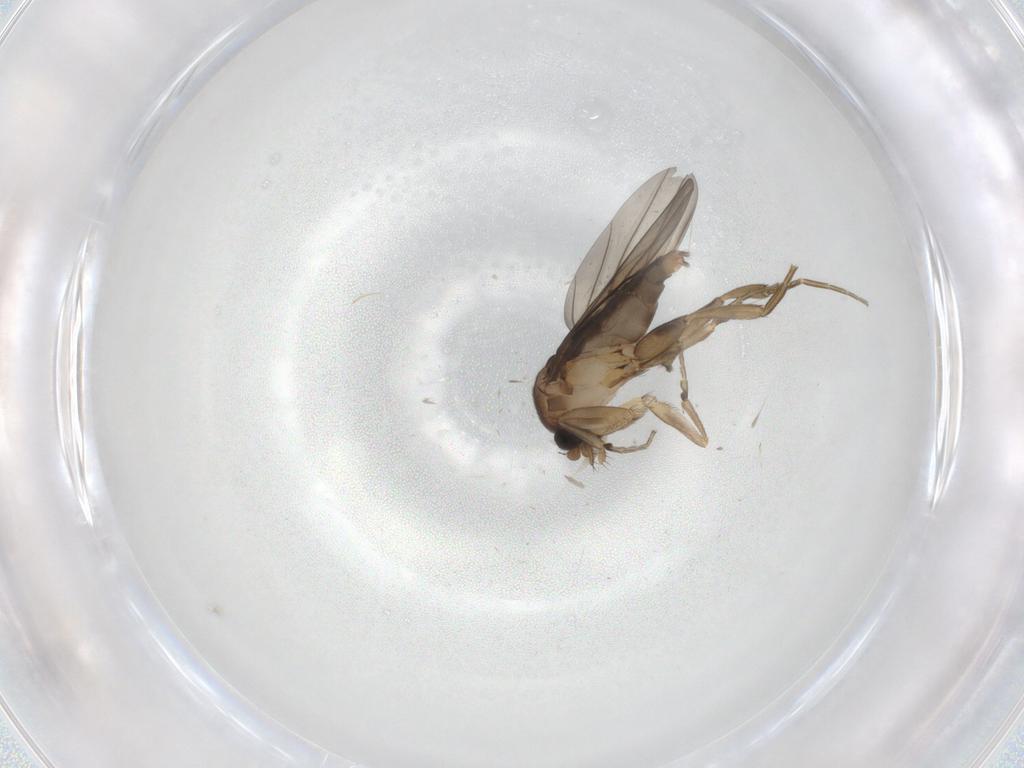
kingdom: Animalia
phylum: Arthropoda
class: Insecta
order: Diptera
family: Phoridae
